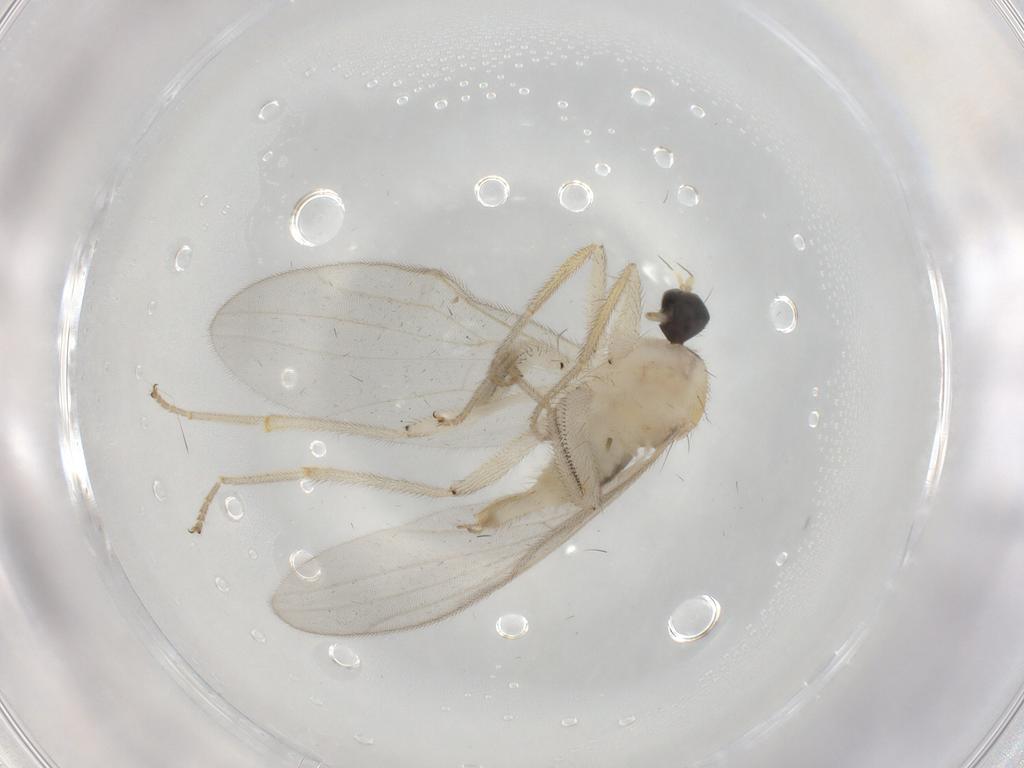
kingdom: Animalia
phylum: Arthropoda
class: Insecta
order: Diptera
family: Hybotidae
